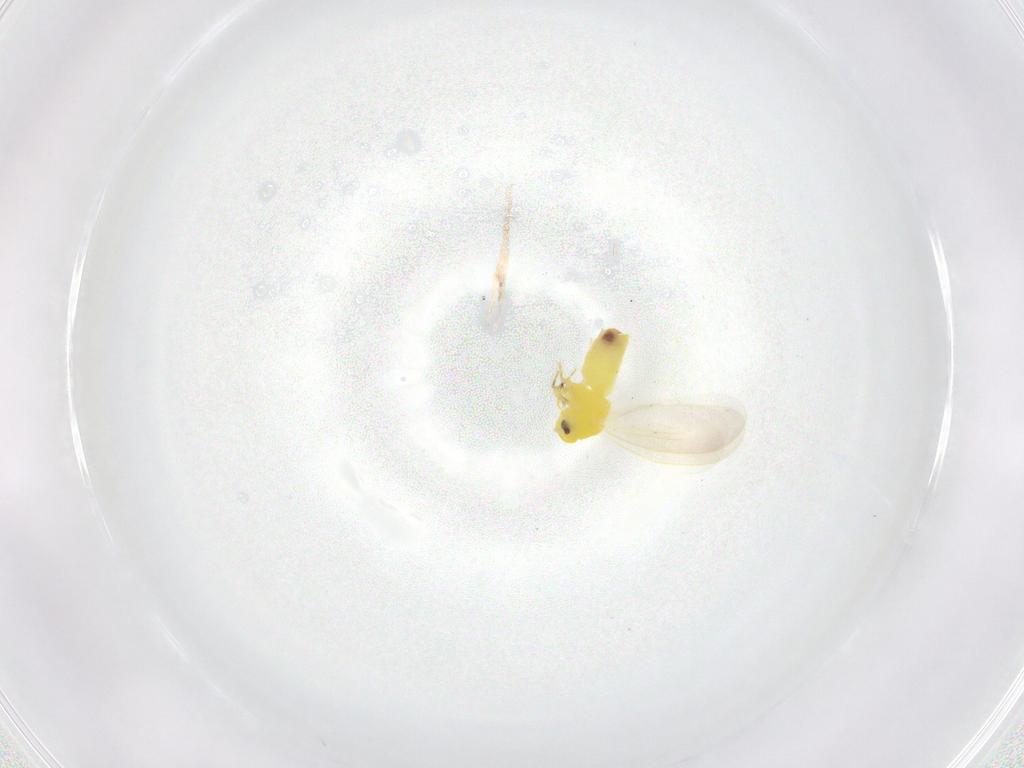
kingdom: Animalia
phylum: Arthropoda
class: Insecta
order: Hemiptera
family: Aleyrodidae
